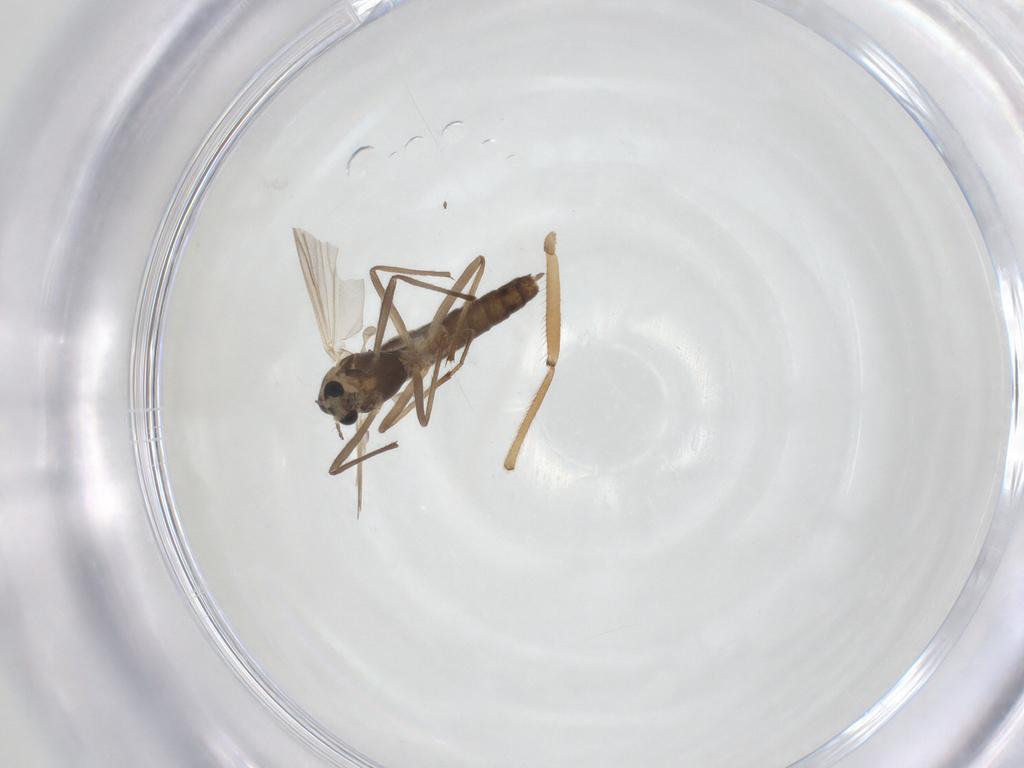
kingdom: Animalia
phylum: Arthropoda
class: Insecta
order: Diptera
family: Chironomidae
